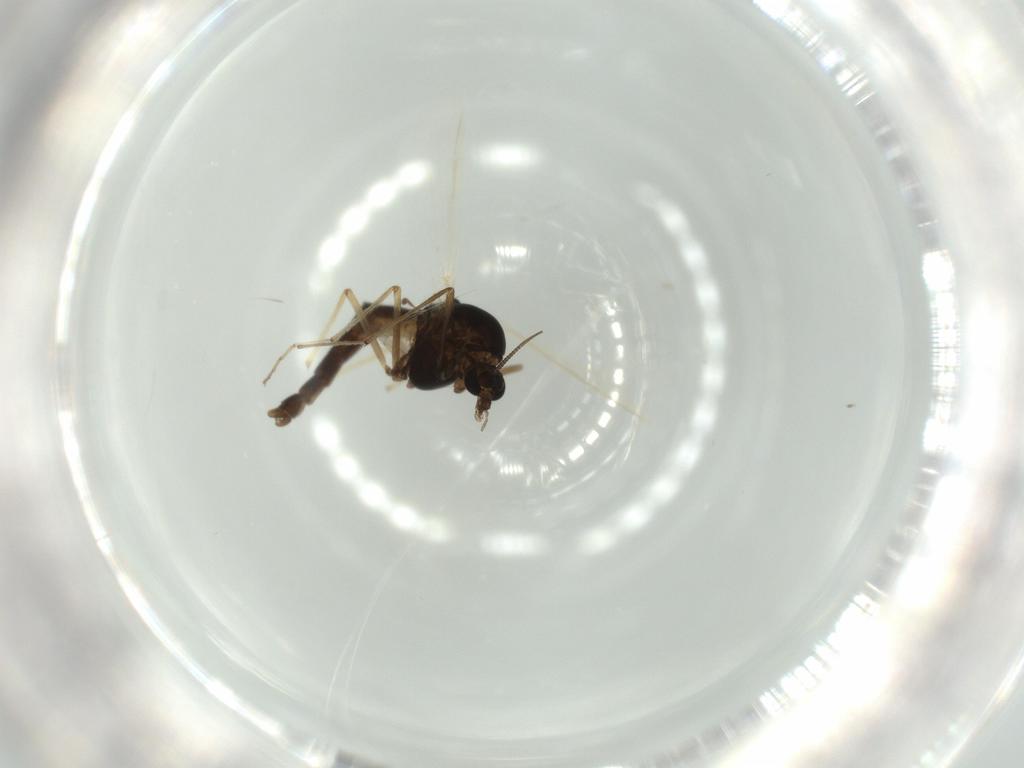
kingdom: Animalia
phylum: Arthropoda
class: Insecta
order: Diptera
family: Chironomidae
